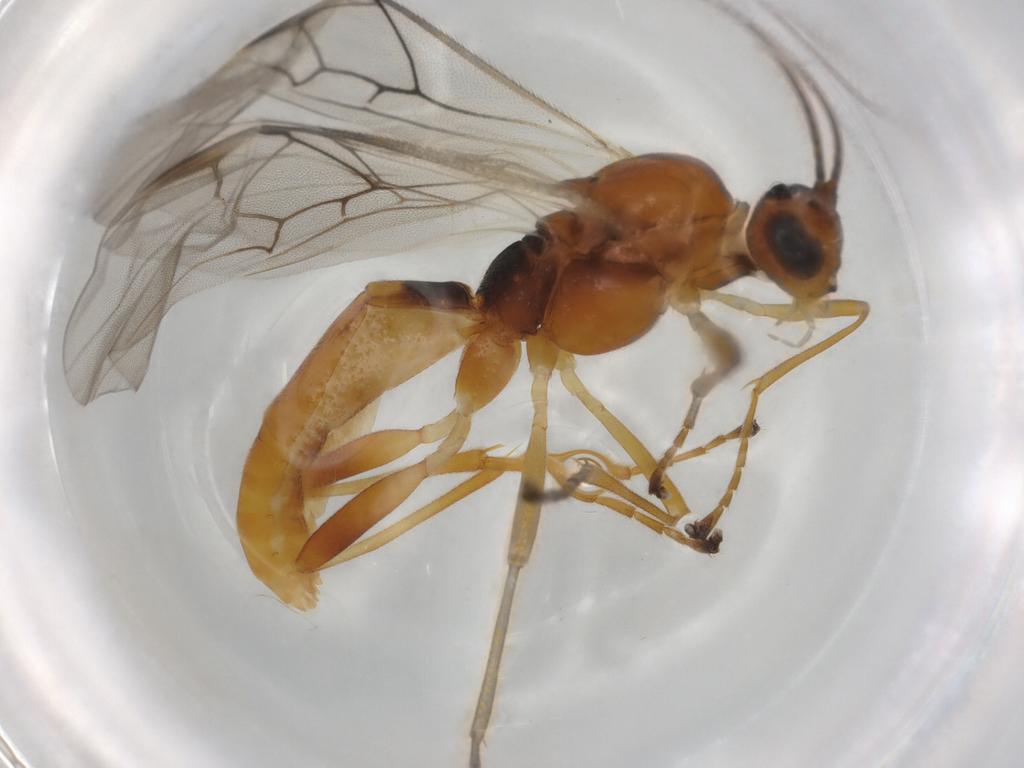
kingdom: Animalia
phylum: Arthropoda
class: Insecta
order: Hymenoptera
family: Braconidae
